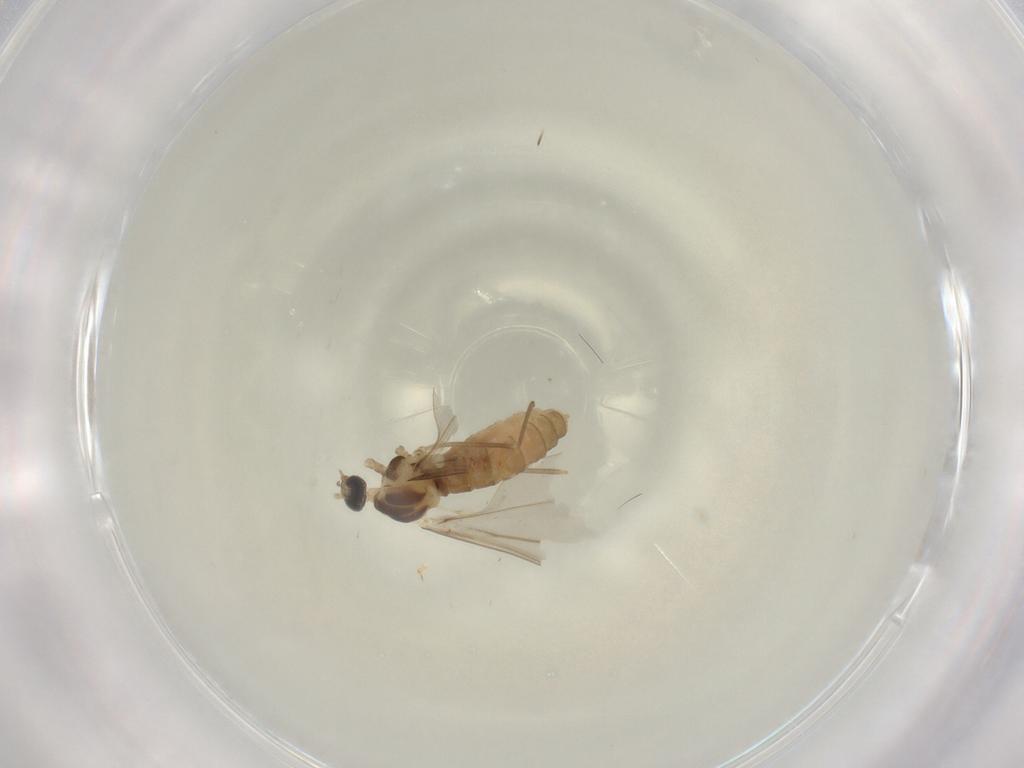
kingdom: Animalia
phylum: Arthropoda
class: Insecta
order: Diptera
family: Cecidomyiidae
